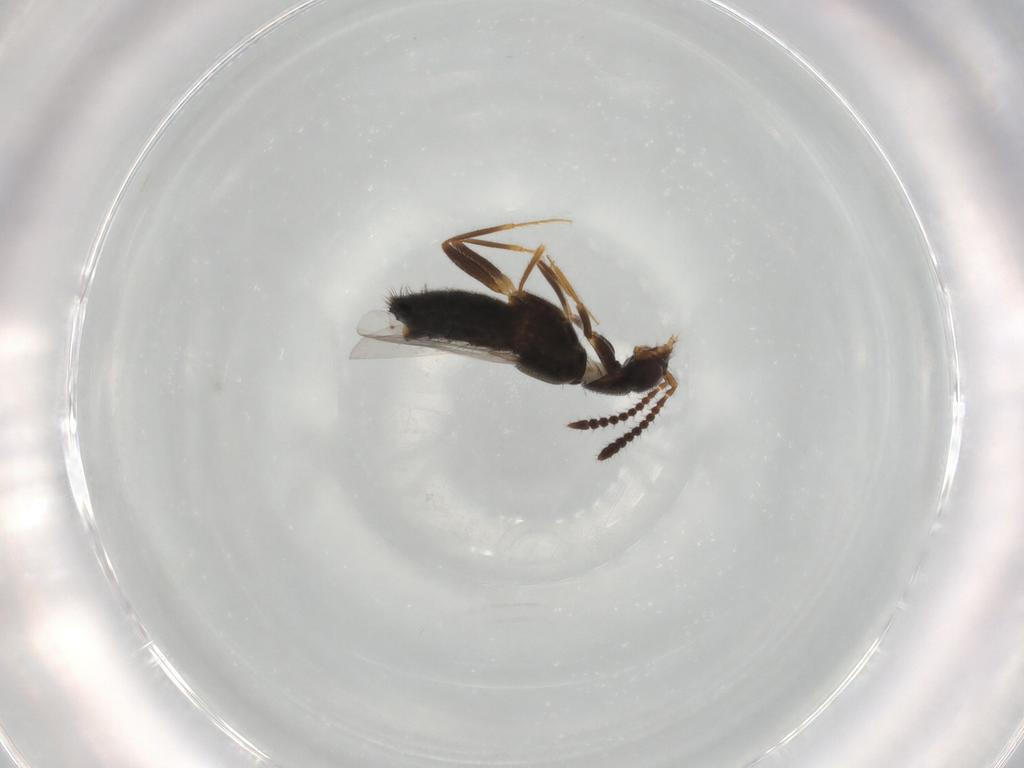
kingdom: Animalia
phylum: Arthropoda
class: Insecta
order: Coleoptera
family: Staphylinidae
